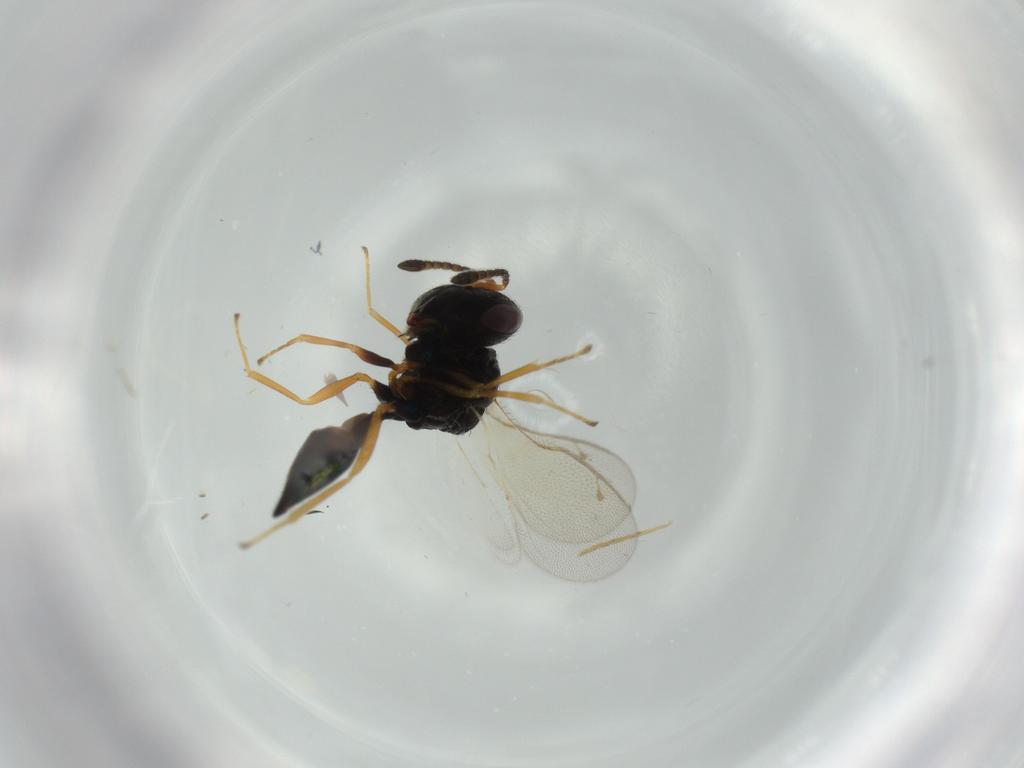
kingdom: Animalia
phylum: Arthropoda
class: Insecta
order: Hymenoptera
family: Pteromalidae
